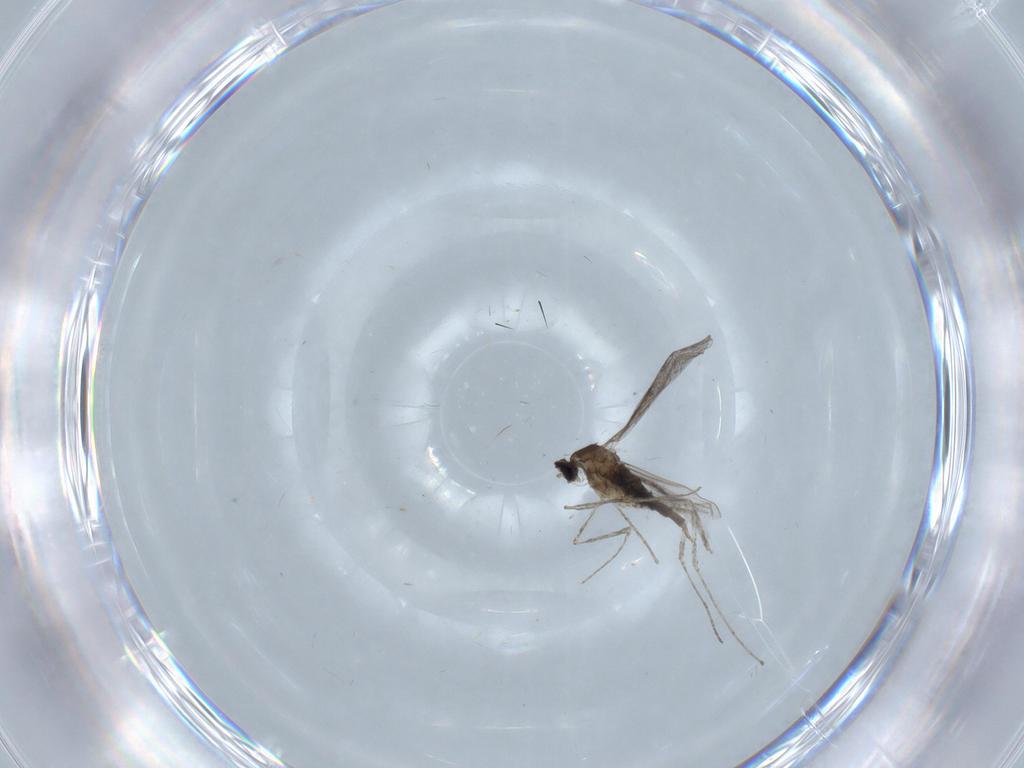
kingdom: Animalia
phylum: Arthropoda
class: Insecta
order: Diptera
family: Cecidomyiidae
